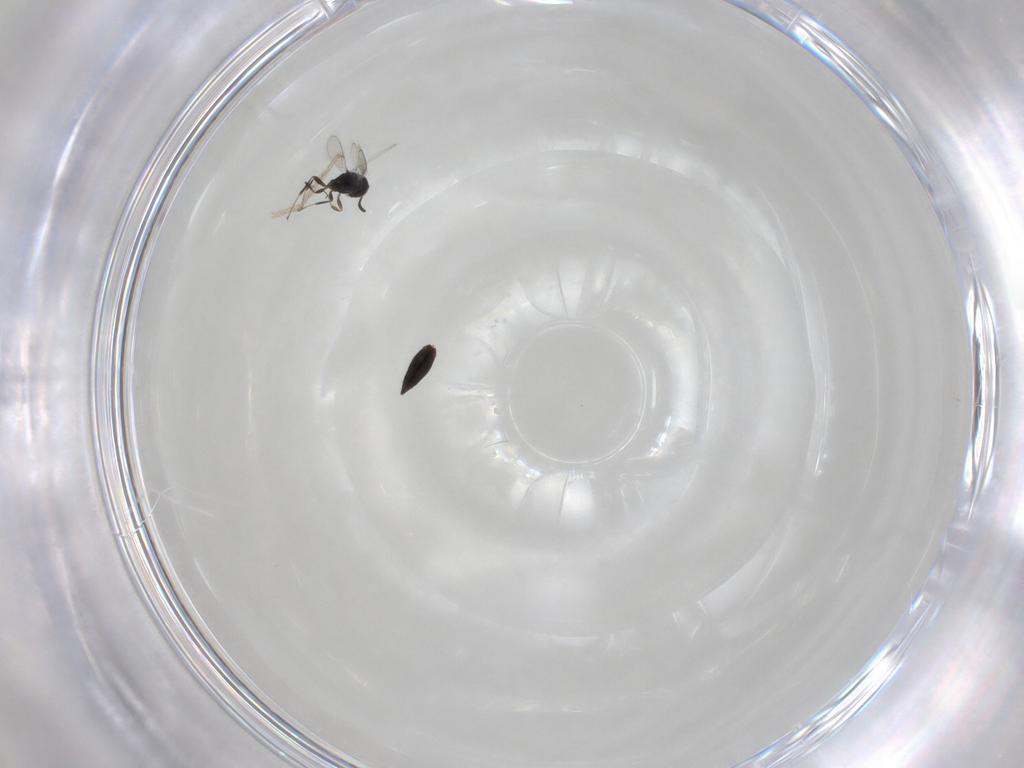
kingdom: Animalia
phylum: Arthropoda
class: Insecta
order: Hymenoptera
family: Scelionidae
